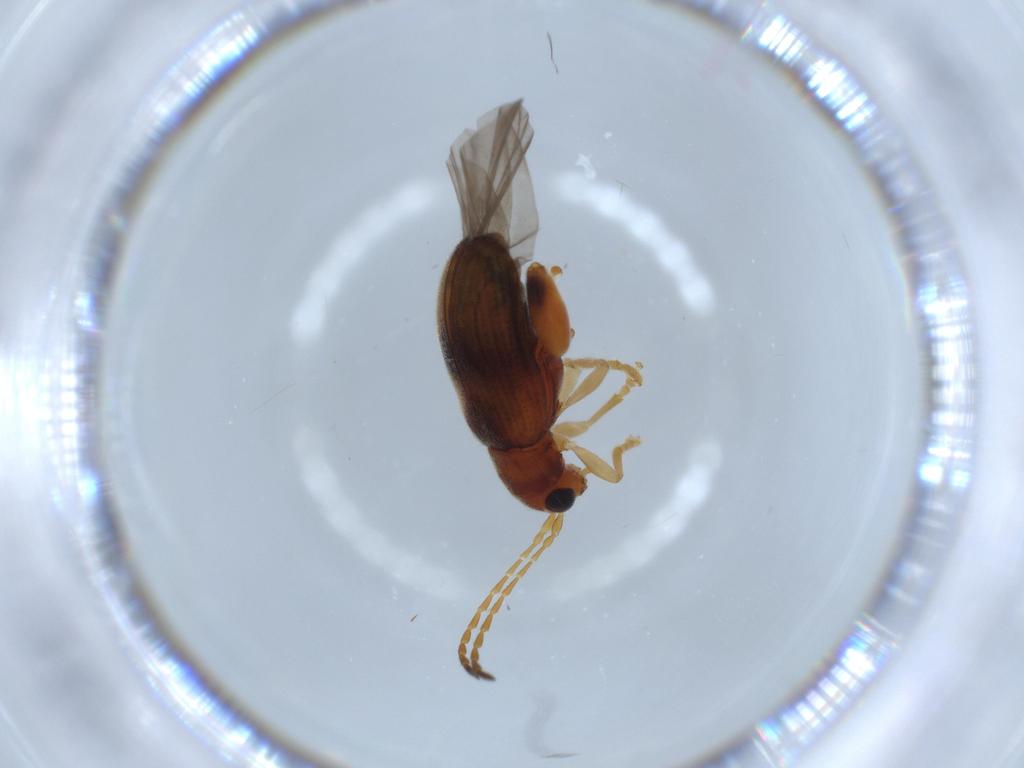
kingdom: Animalia
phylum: Arthropoda
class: Insecta
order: Coleoptera
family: Chrysomelidae
